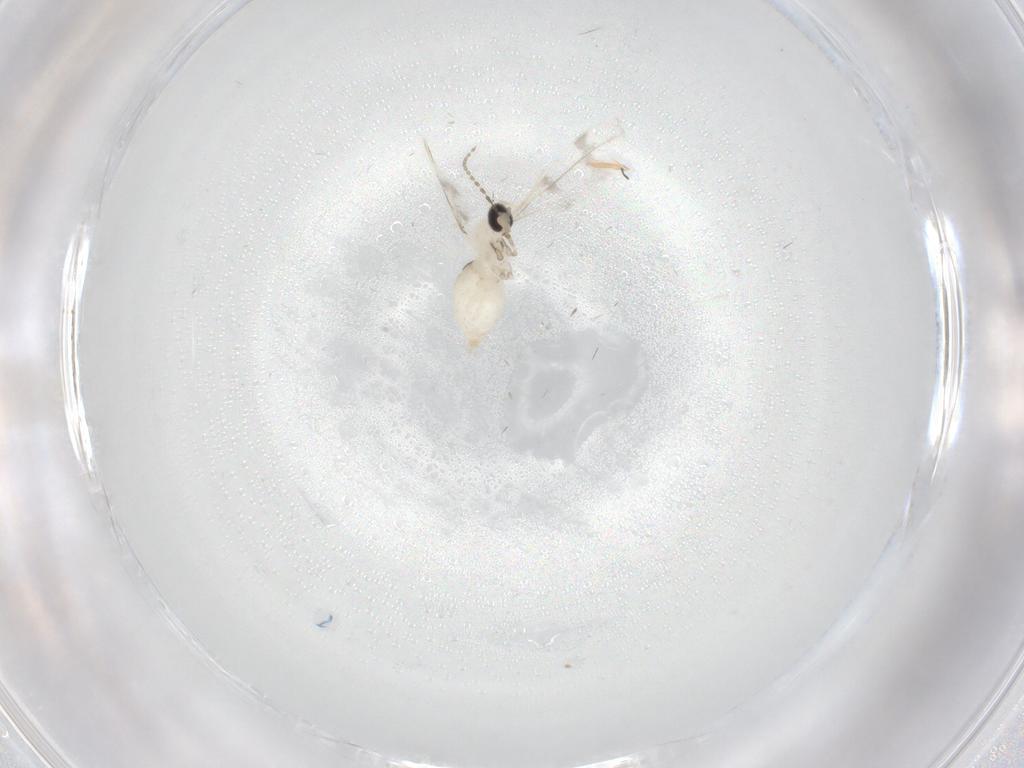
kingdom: Animalia
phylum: Arthropoda
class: Insecta
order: Diptera
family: Cecidomyiidae
